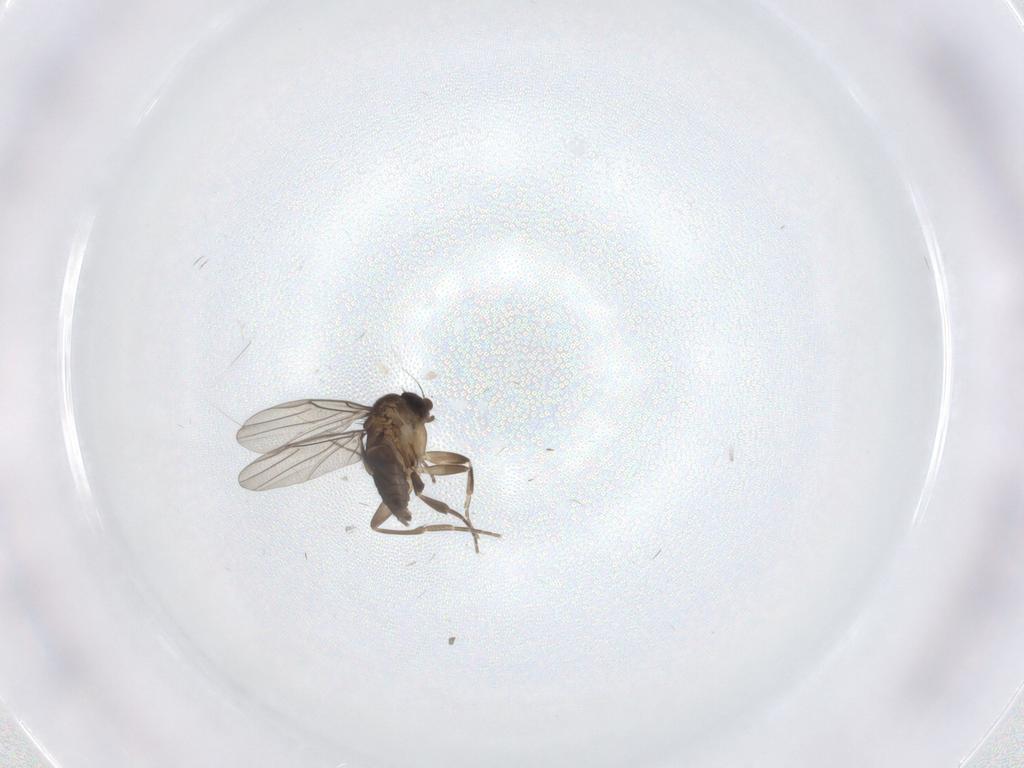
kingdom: Animalia
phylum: Arthropoda
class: Insecta
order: Diptera
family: Ceratopogonidae
